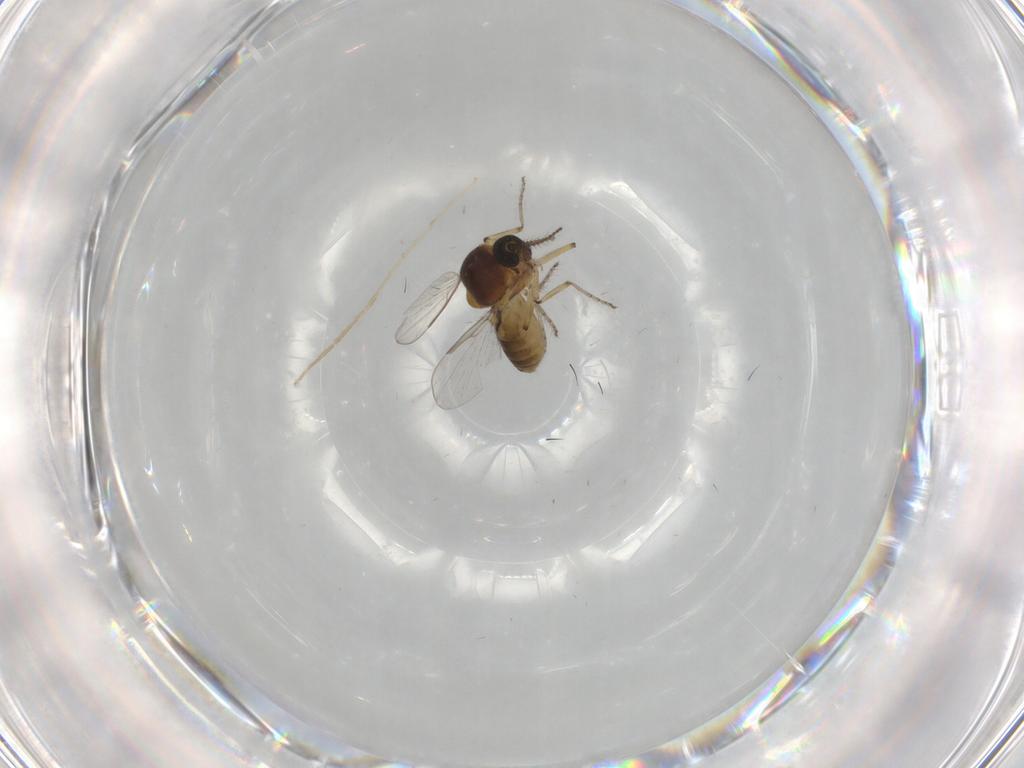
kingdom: Animalia
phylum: Arthropoda
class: Insecta
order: Diptera
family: Ceratopogonidae
